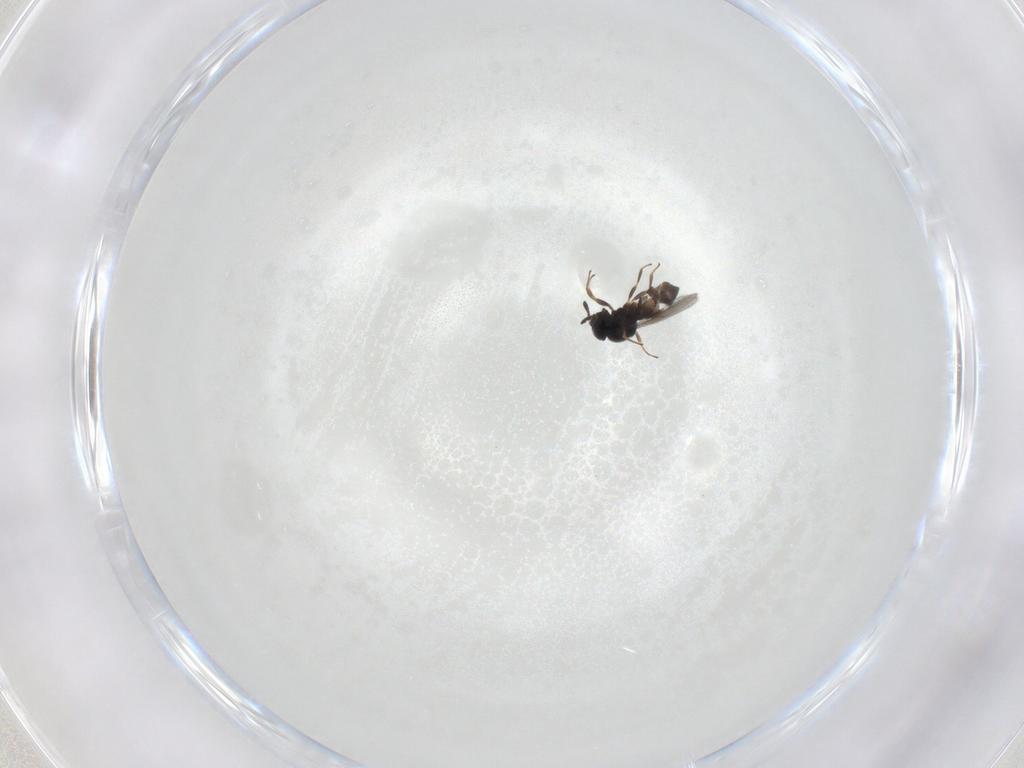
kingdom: Animalia
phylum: Arthropoda
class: Insecta
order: Hymenoptera
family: Scelionidae
